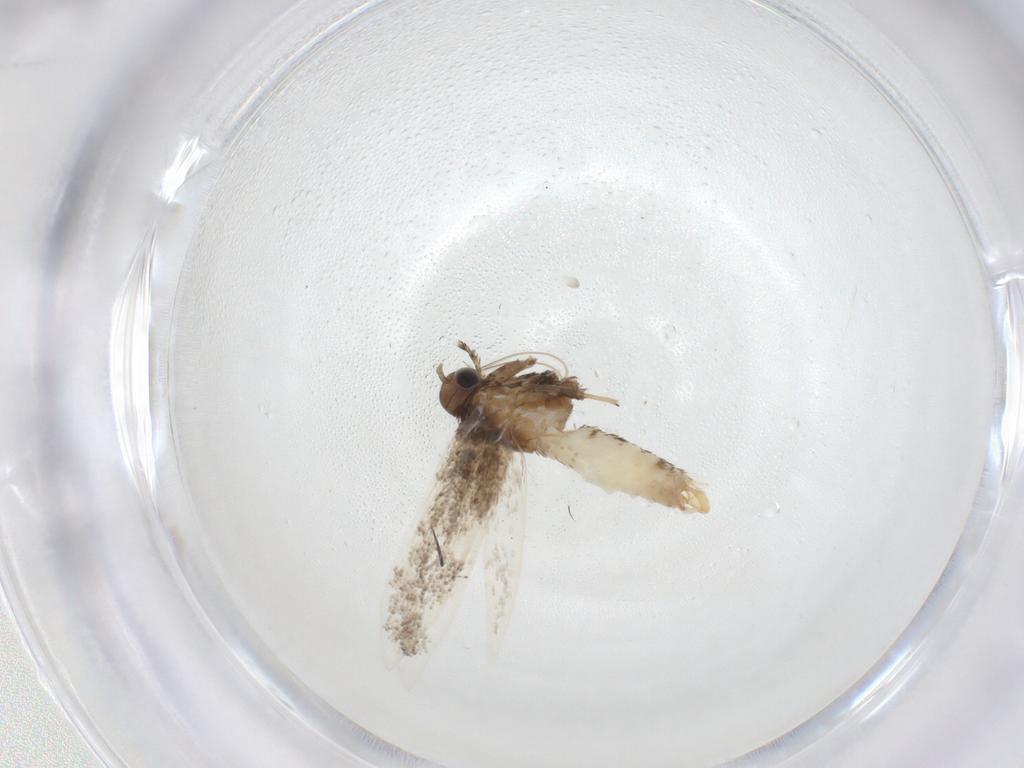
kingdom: Animalia
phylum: Arthropoda
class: Insecta
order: Lepidoptera
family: Gracillariidae
